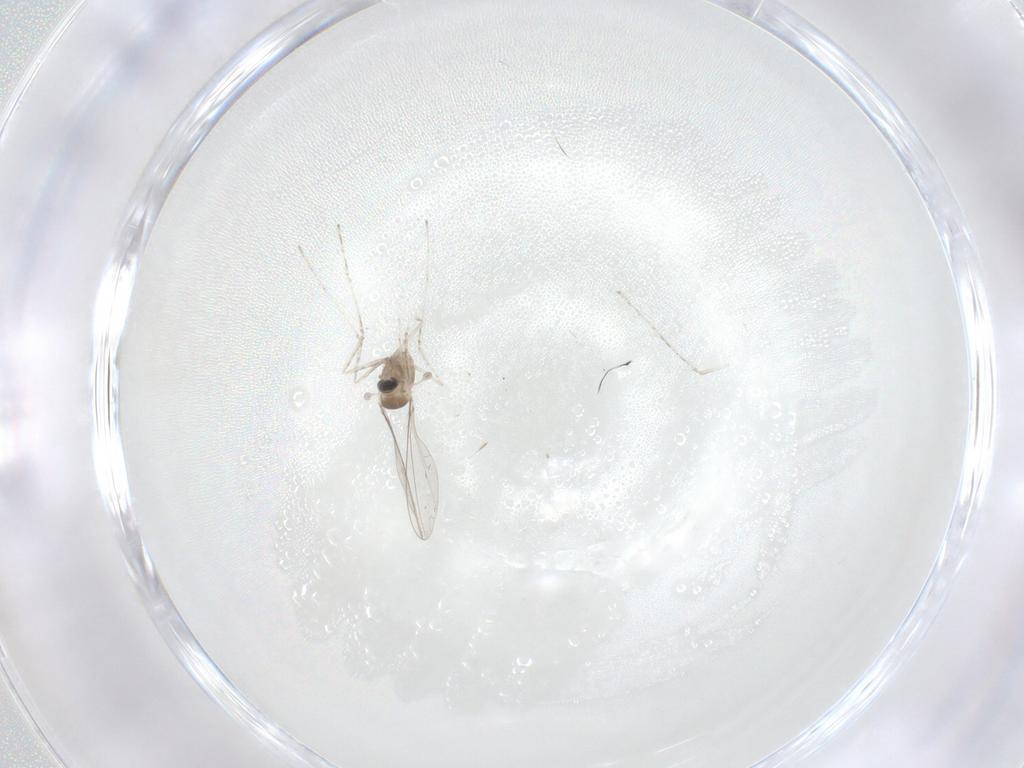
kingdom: Animalia
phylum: Arthropoda
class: Insecta
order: Diptera
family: Cecidomyiidae
